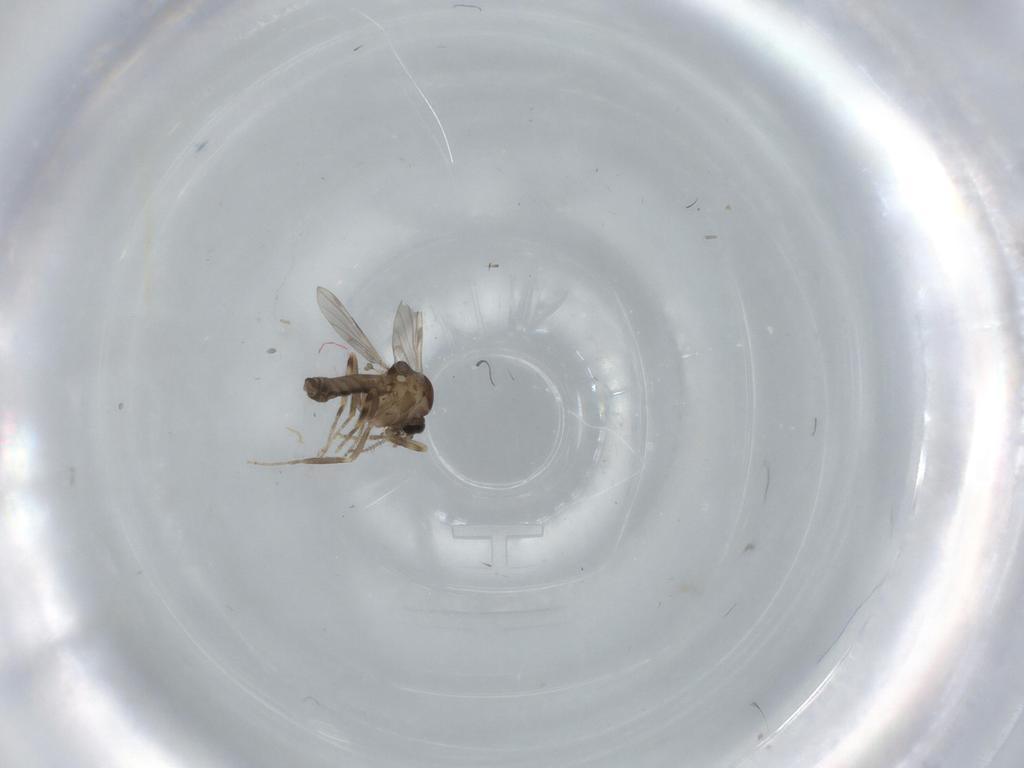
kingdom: Animalia
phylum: Arthropoda
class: Insecta
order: Diptera
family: Ceratopogonidae
